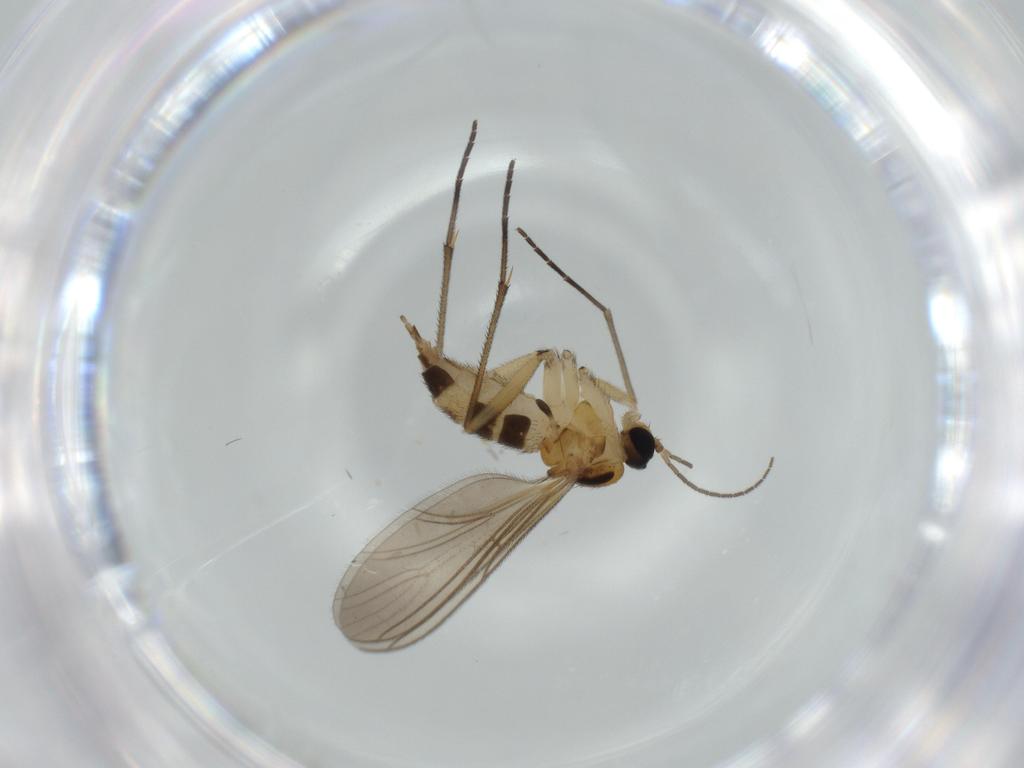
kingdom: Animalia
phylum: Arthropoda
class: Insecta
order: Diptera
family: Sciaridae
